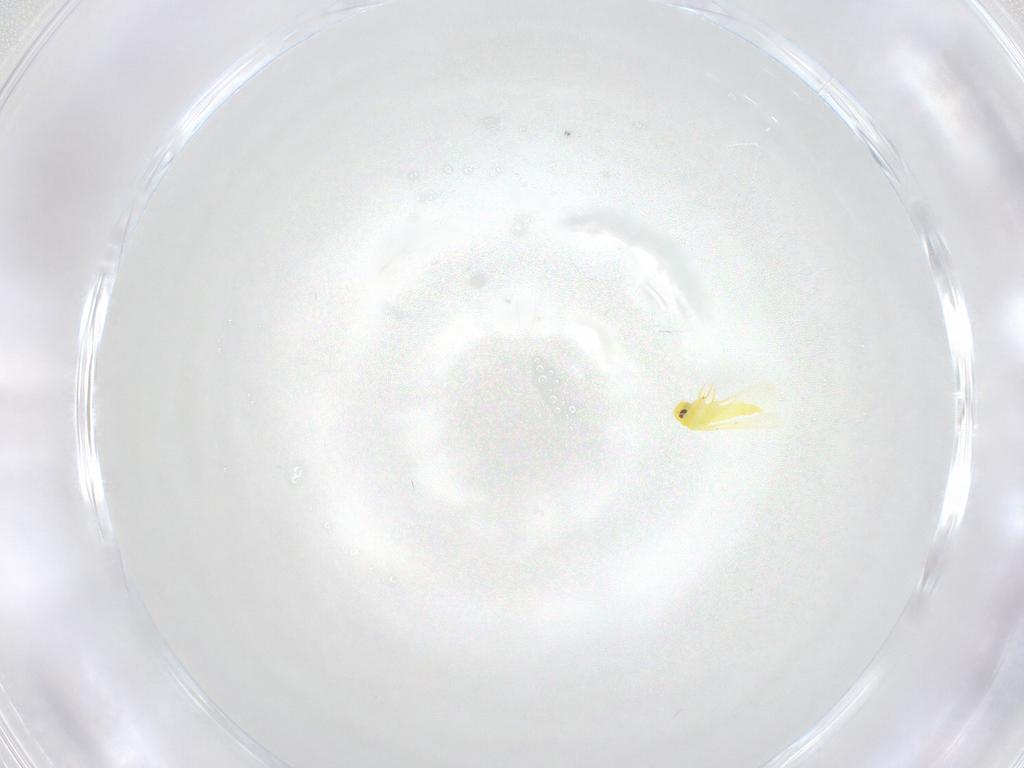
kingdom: Animalia
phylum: Arthropoda
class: Insecta
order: Hemiptera
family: Aleyrodidae
